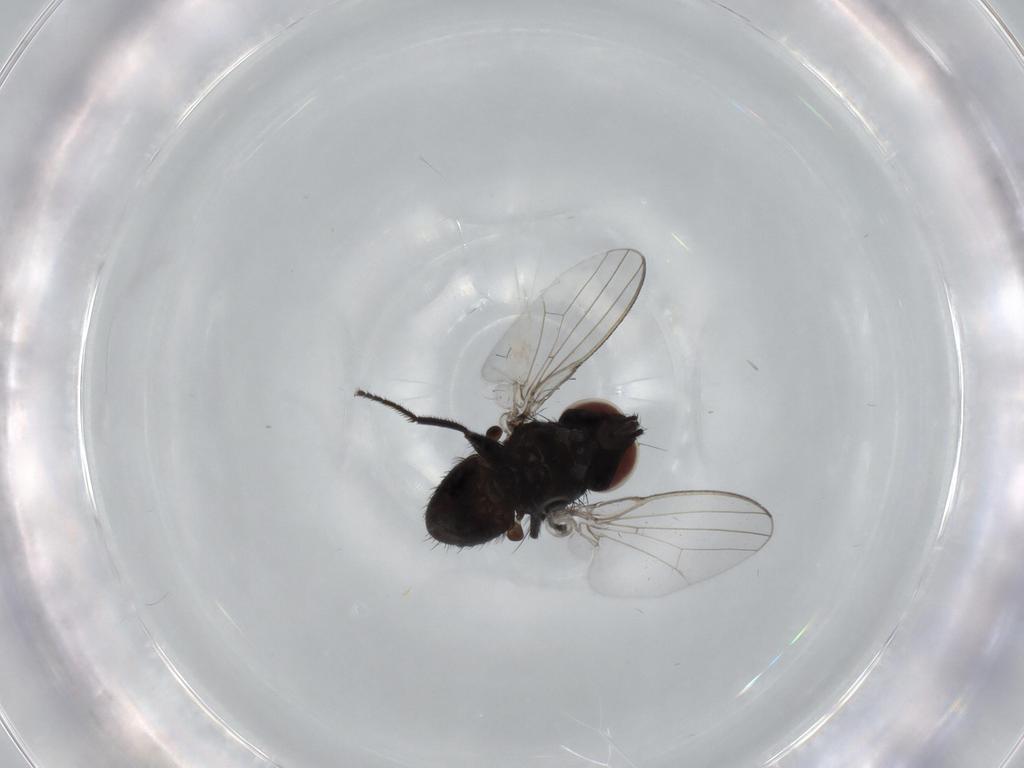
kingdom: Animalia
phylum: Arthropoda
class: Insecta
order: Diptera
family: Milichiidae
